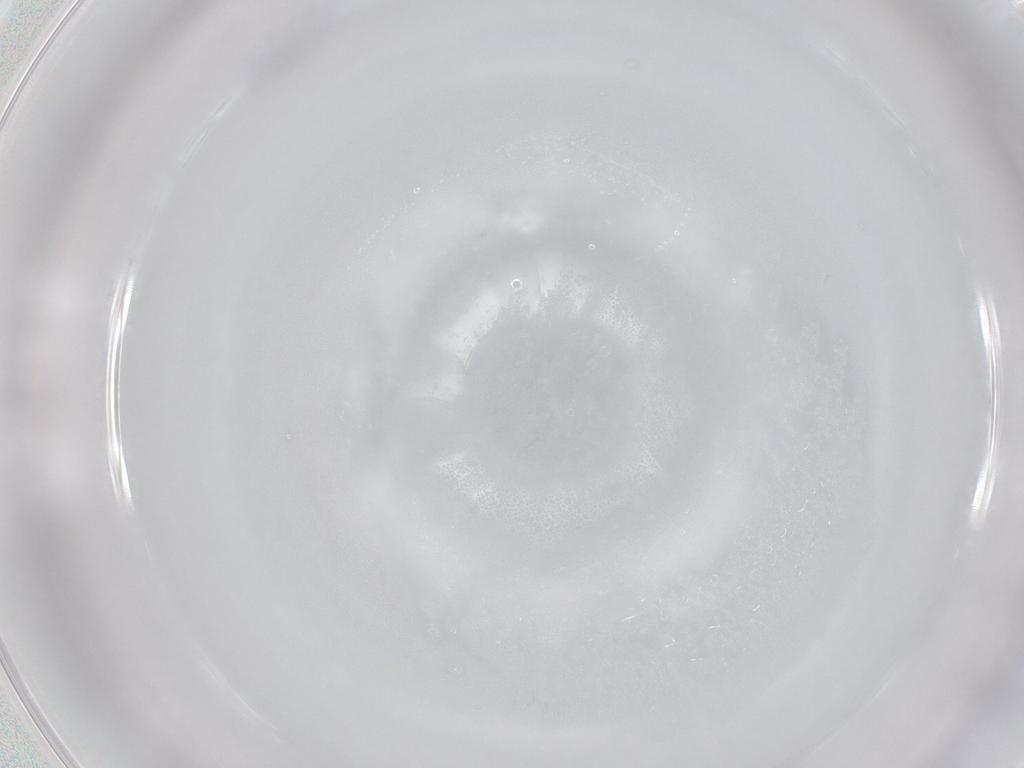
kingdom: Animalia
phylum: Arthropoda
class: Collembola
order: Entomobryomorpha
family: Entomobryidae
